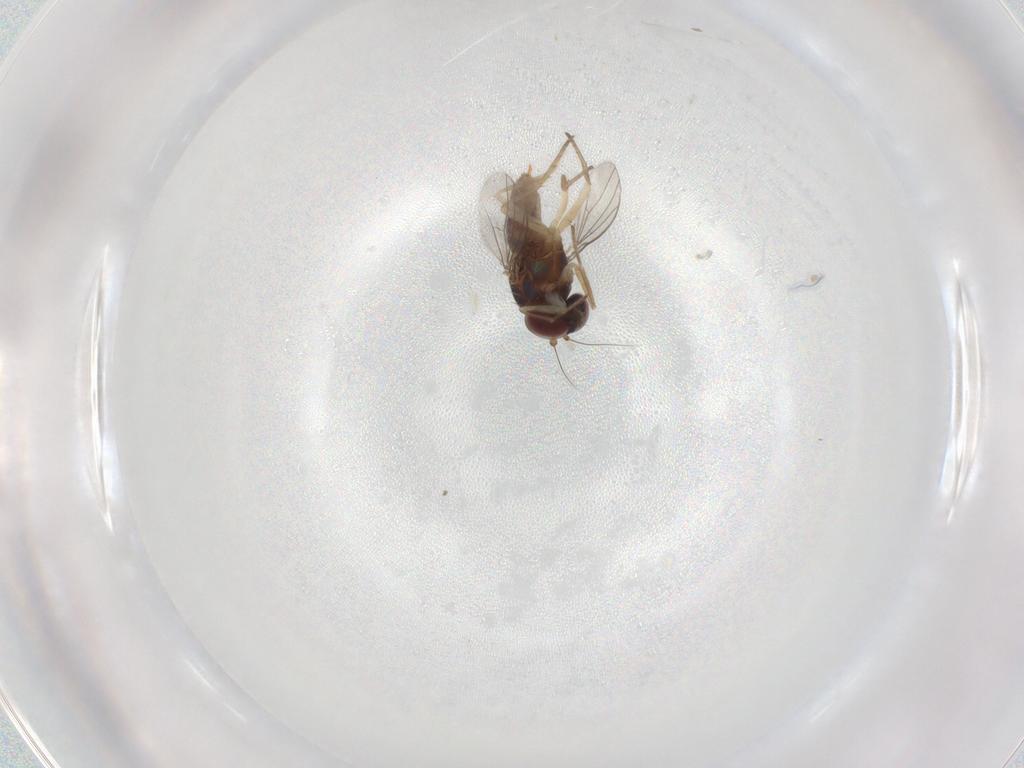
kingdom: Animalia
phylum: Arthropoda
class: Insecta
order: Diptera
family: Dolichopodidae
